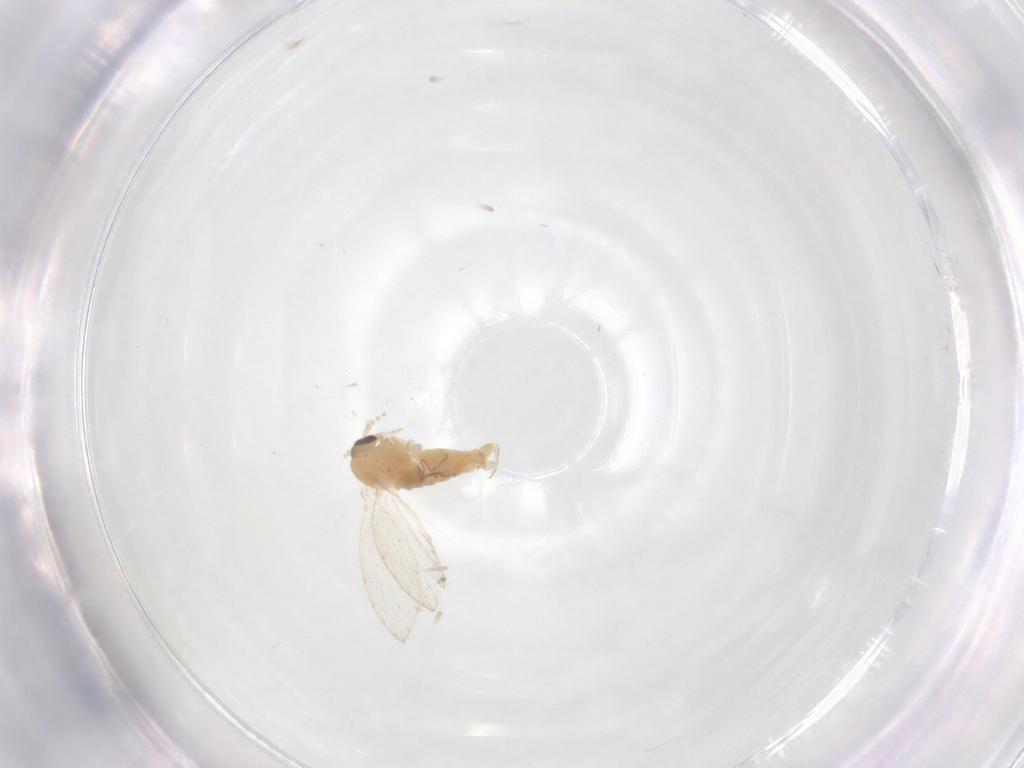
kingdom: Animalia
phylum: Arthropoda
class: Insecta
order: Diptera
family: Psychodidae
